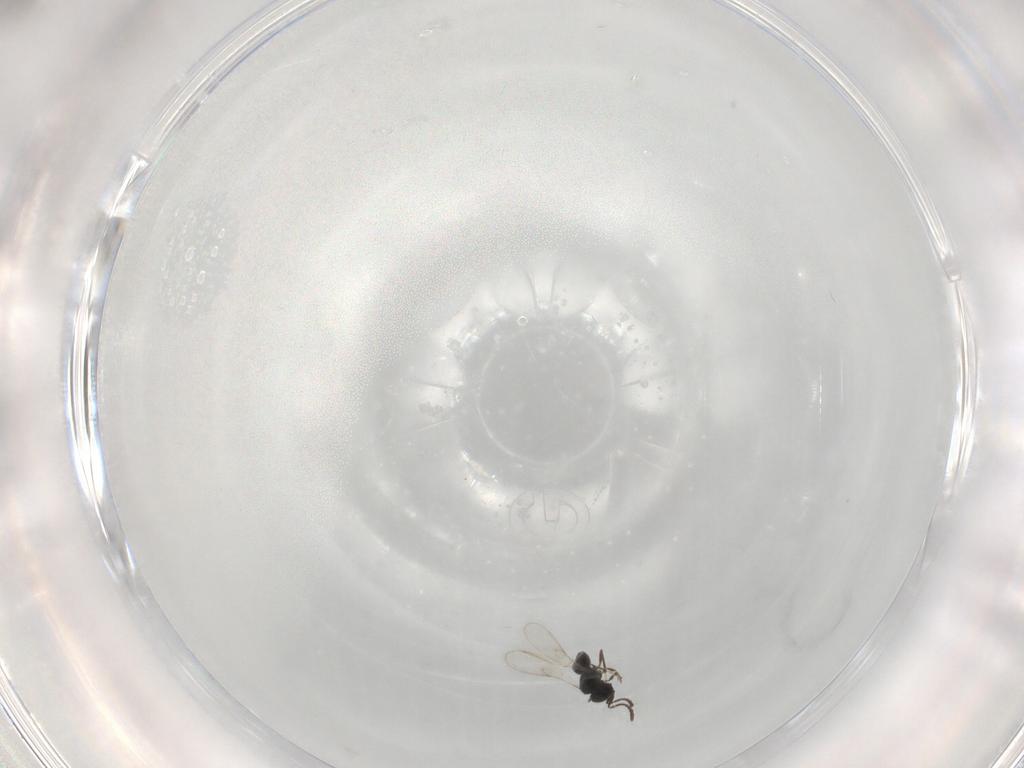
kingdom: Animalia
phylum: Arthropoda
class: Insecta
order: Hymenoptera
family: Scelionidae
